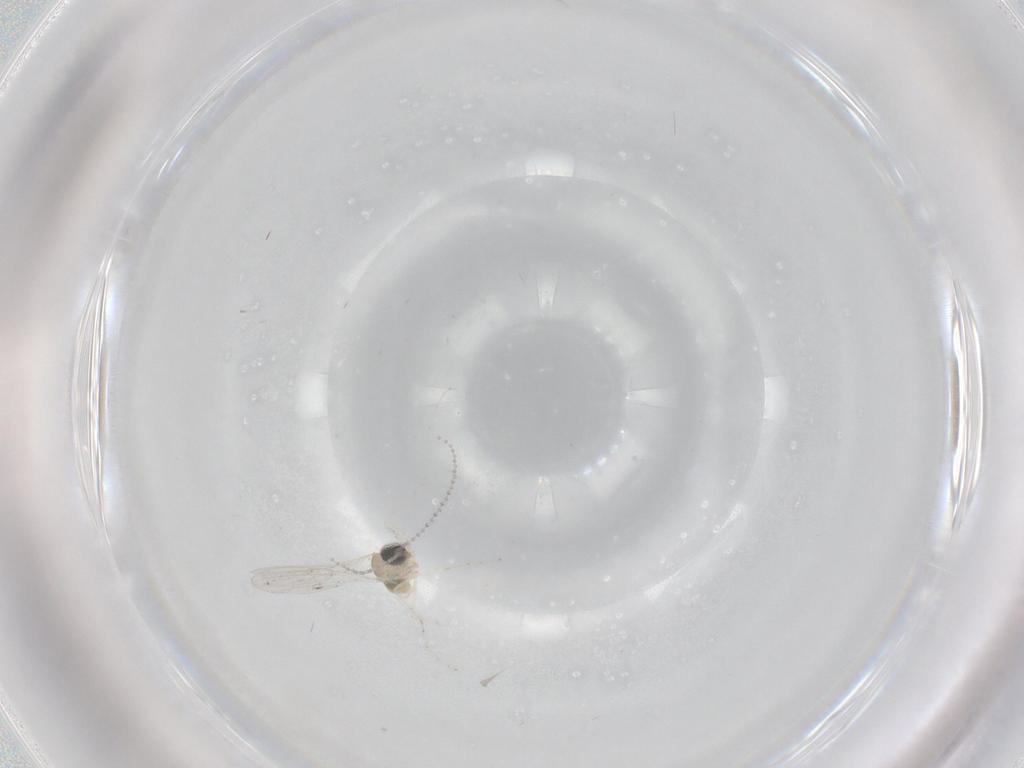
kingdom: Animalia
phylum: Arthropoda
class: Insecta
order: Diptera
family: Cecidomyiidae
